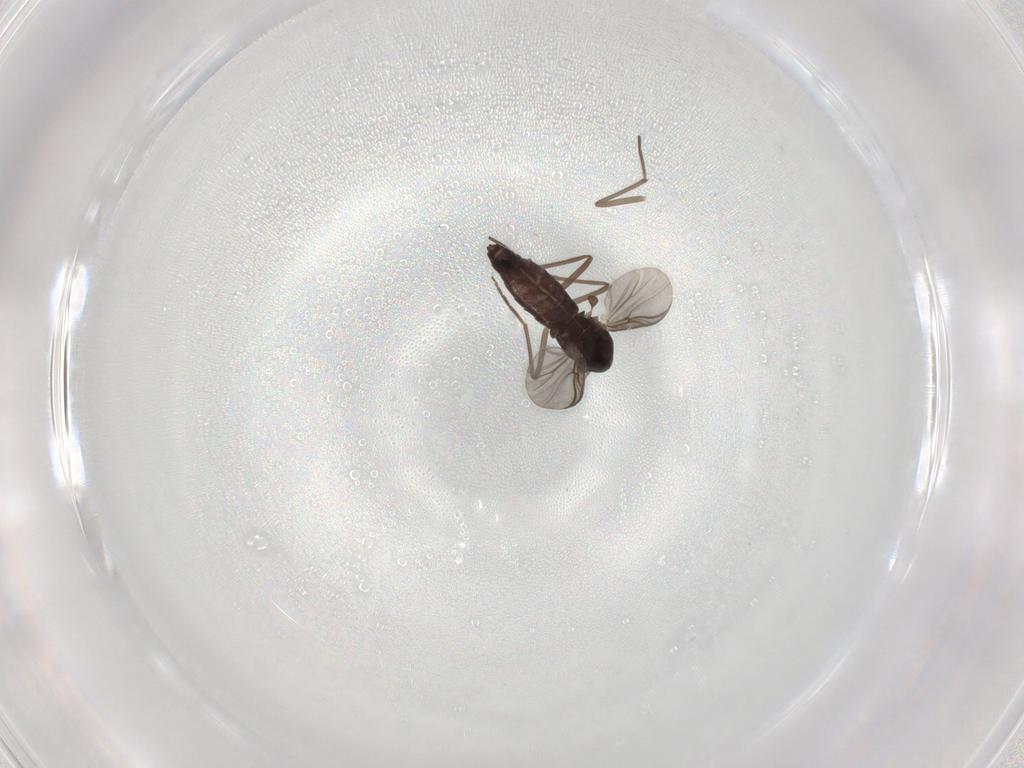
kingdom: Animalia
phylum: Arthropoda
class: Insecta
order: Diptera
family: Chironomidae
